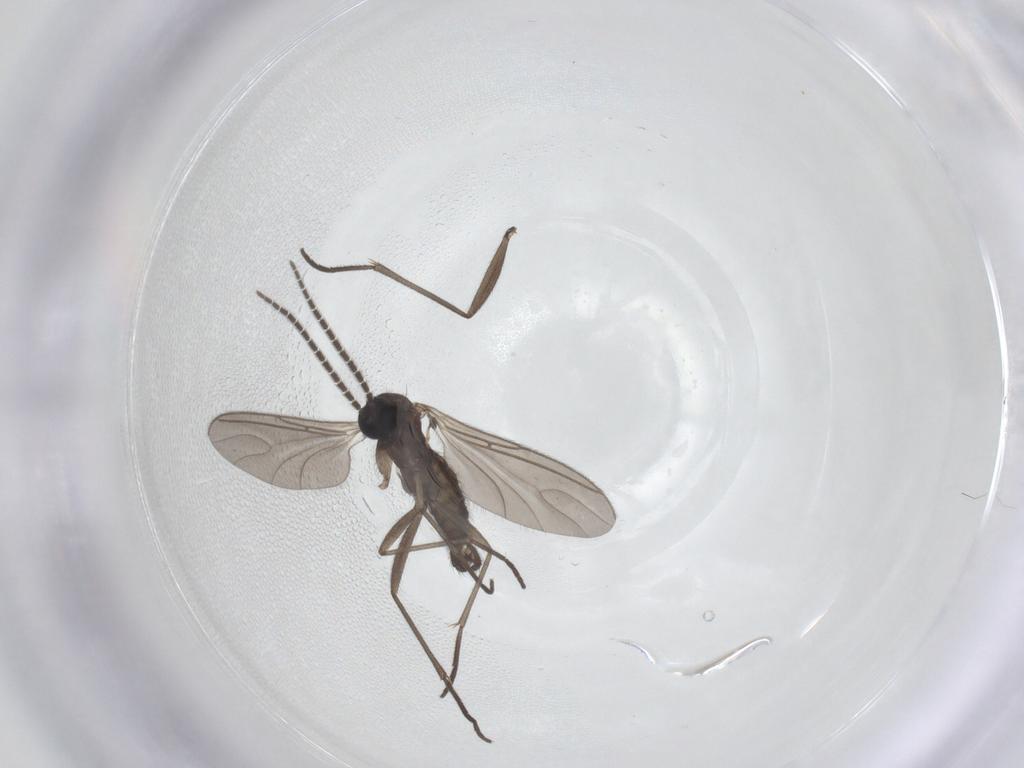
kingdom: Animalia
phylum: Arthropoda
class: Insecta
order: Diptera
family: Sciaridae
